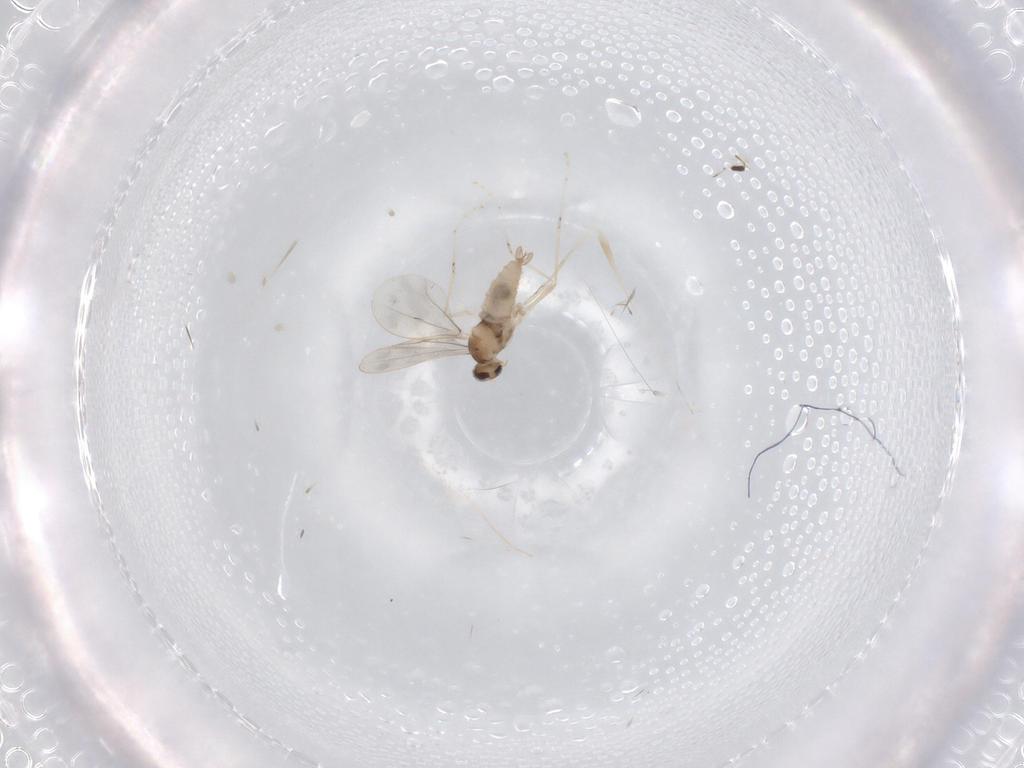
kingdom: Animalia
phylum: Arthropoda
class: Insecta
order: Diptera
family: Cecidomyiidae
